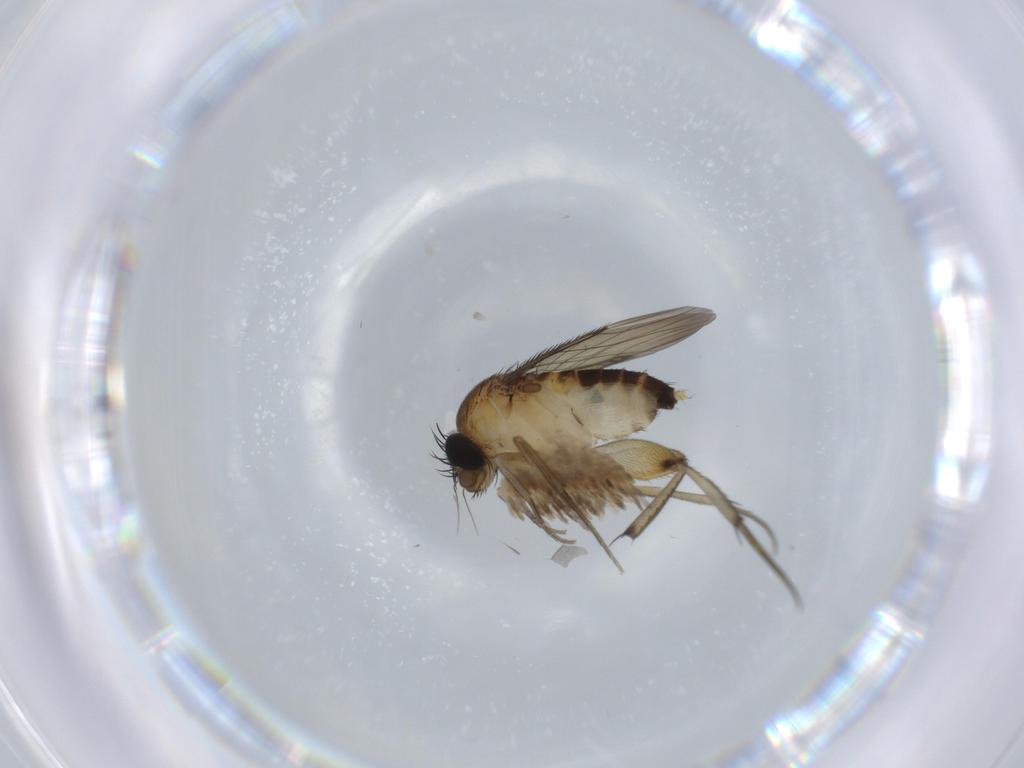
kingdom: Animalia
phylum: Arthropoda
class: Insecta
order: Diptera
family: Phoridae
